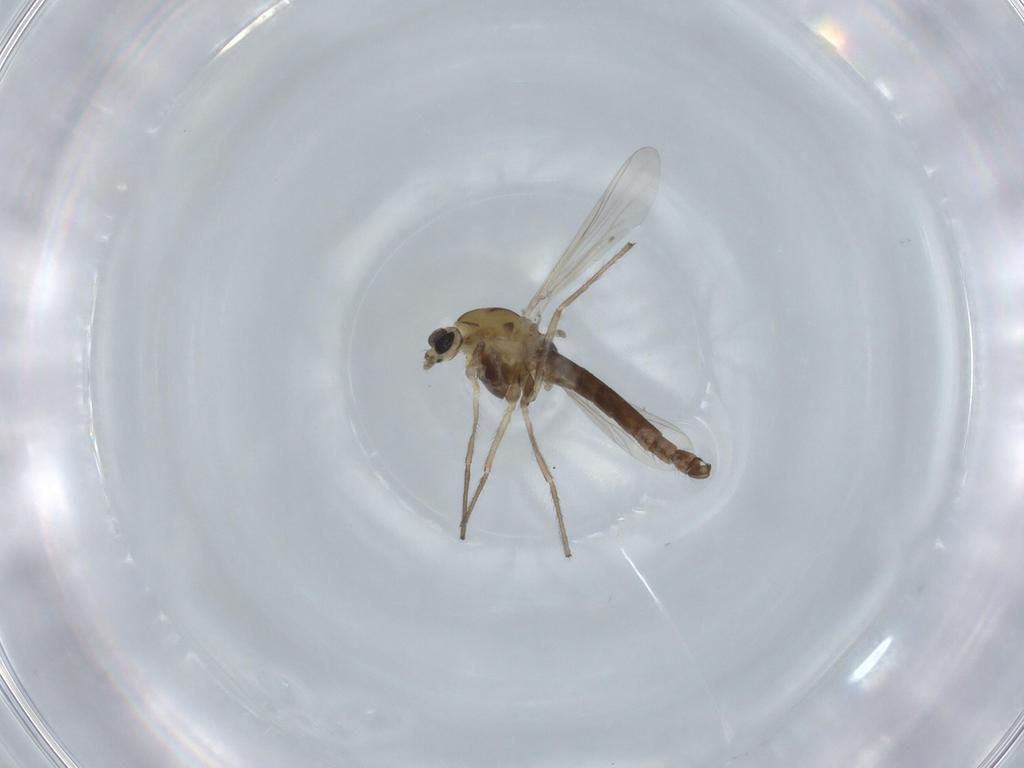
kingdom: Animalia
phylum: Arthropoda
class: Insecta
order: Diptera
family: Chironomidae
